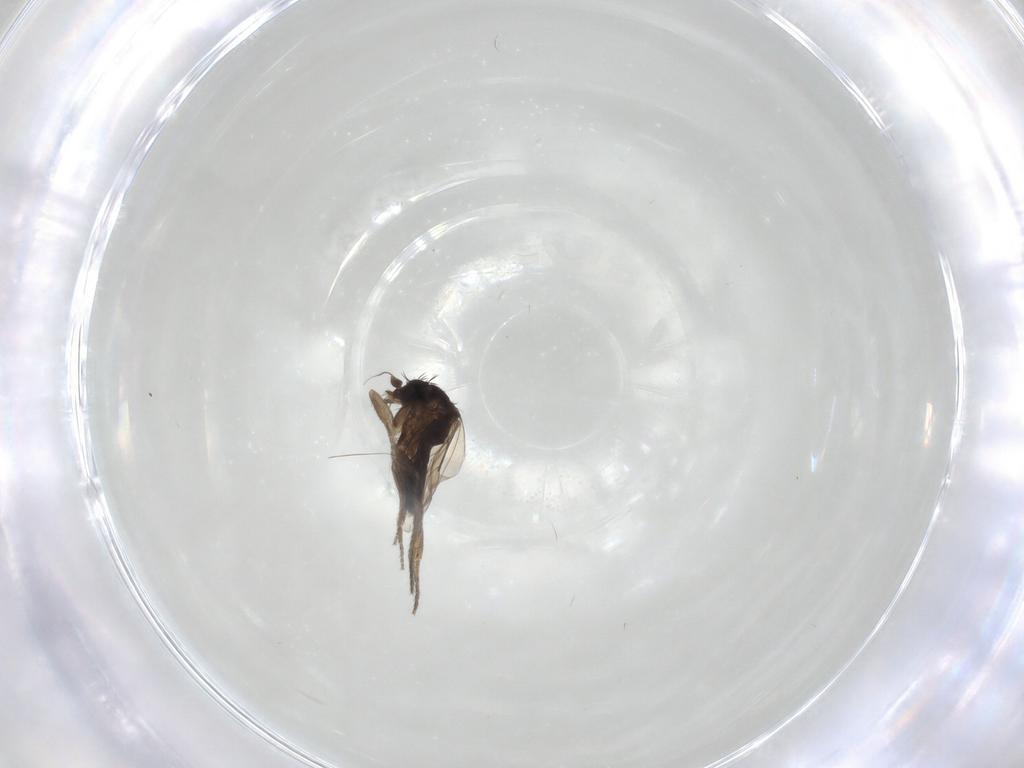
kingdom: Animalia
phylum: Arthropoda
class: Insecta
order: Diptera
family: Phoridae
